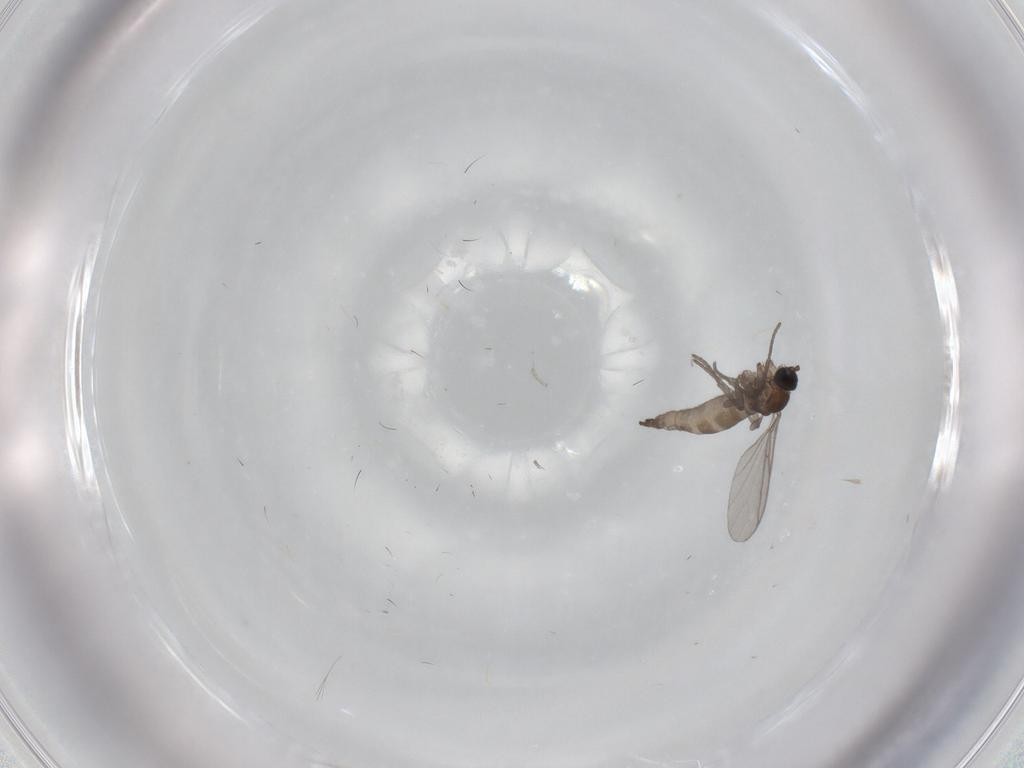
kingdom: Animalia
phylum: Arthropoda
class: Insecta
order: Diptera
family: Sciaridae
